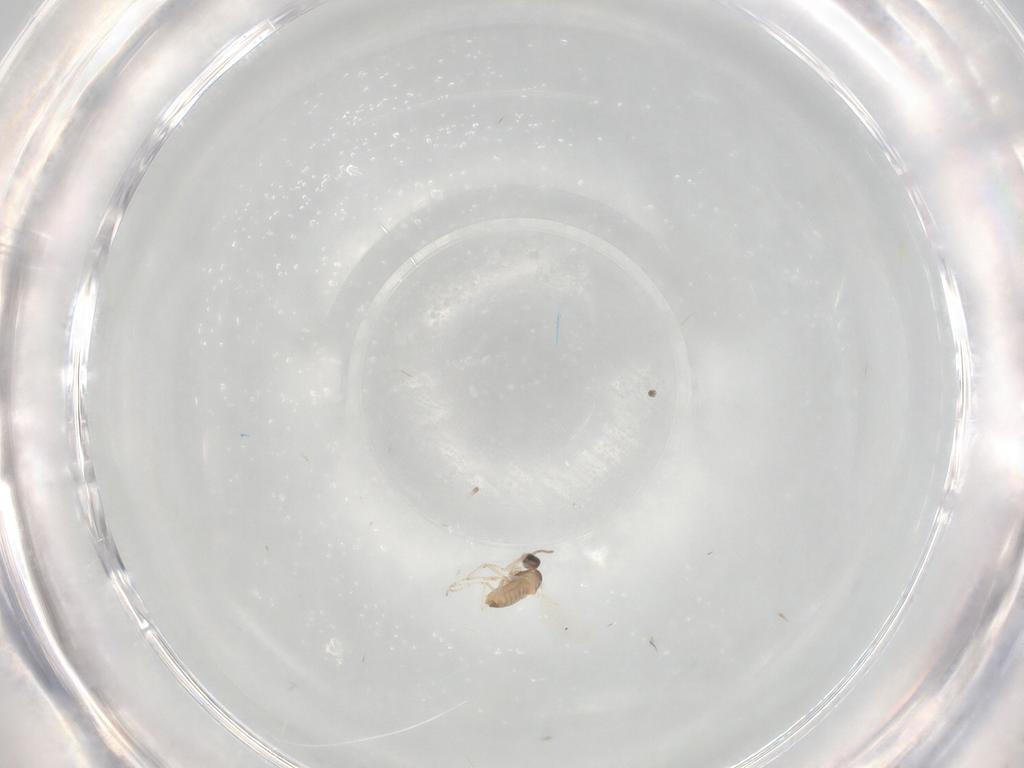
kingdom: Animalia
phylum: Arthropoda
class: Insecta
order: Diptera
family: Cecidomyiidae
